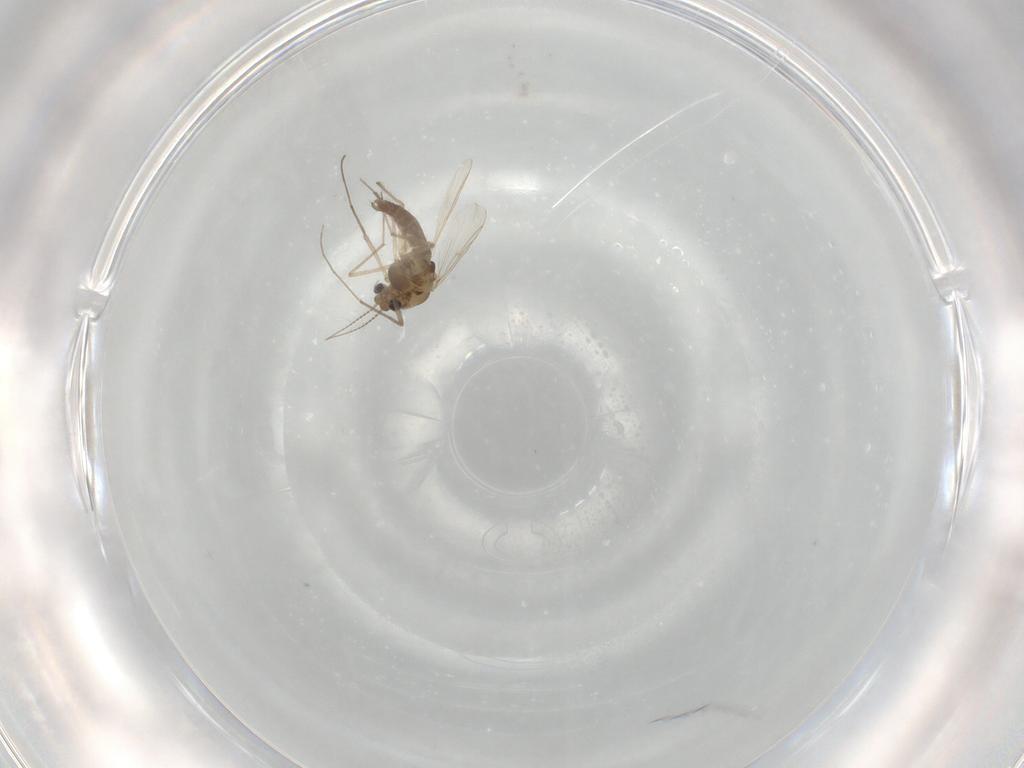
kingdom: Animalia
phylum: Arthropoda
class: Insecta
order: Diptera
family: Chironomidae
